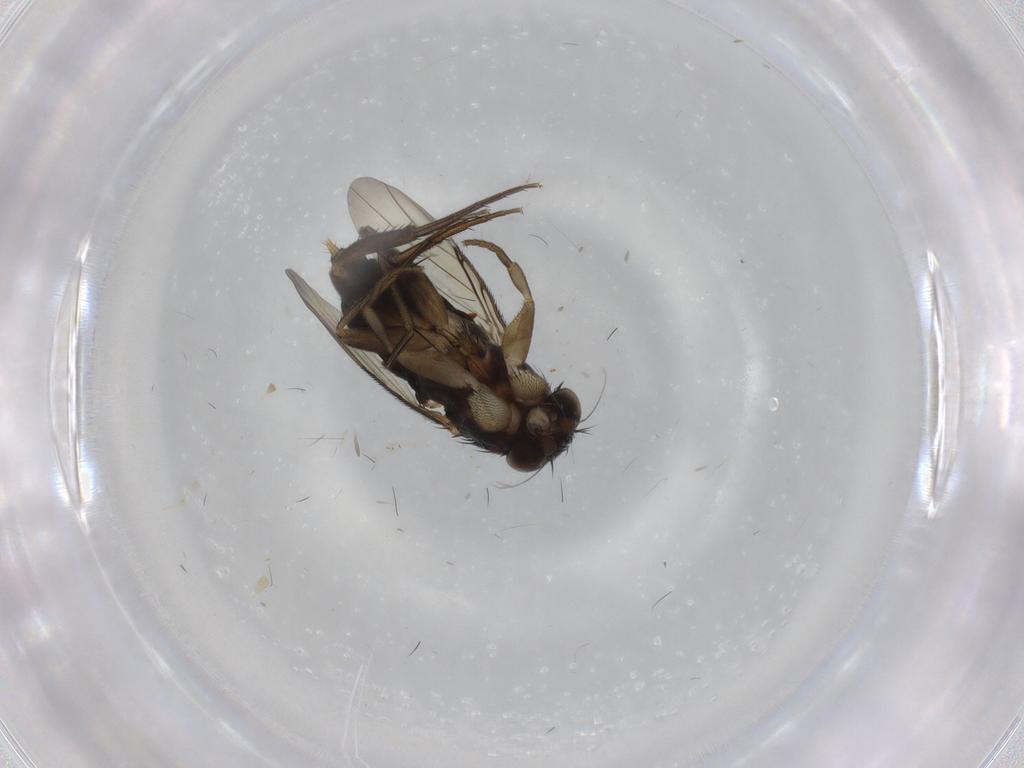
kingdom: Animalia
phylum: Arthropoda
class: Insecta
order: Diptera
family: Phoridae
